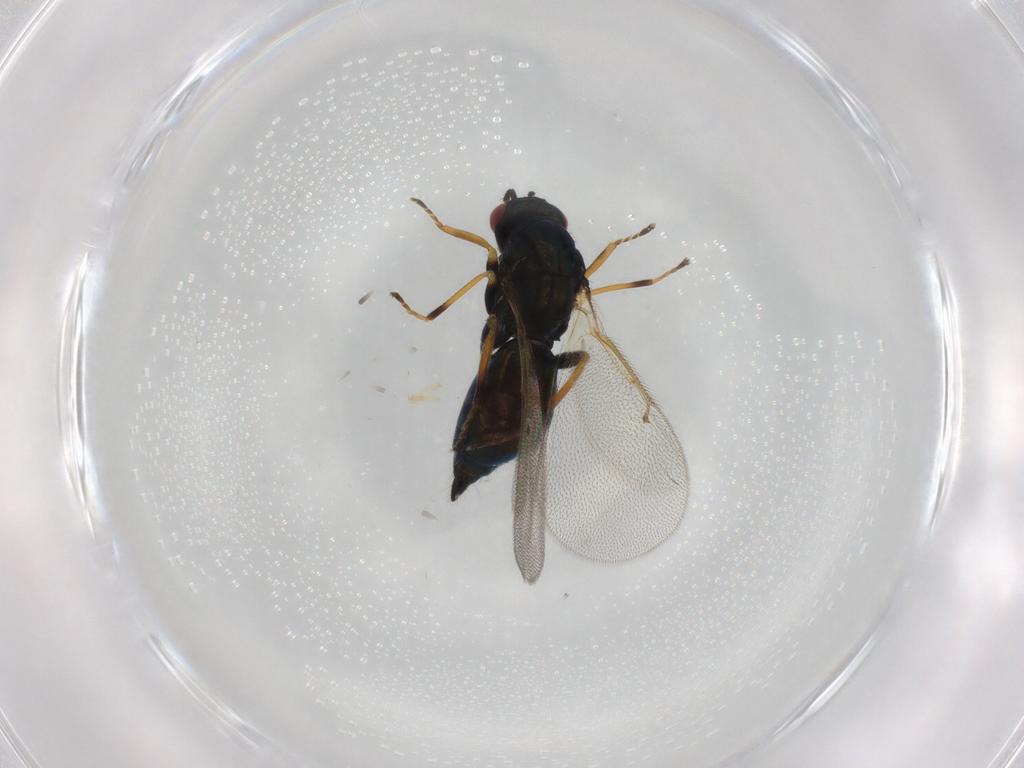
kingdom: Animalia
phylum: Arthropoda
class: Insecta
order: Hymenoptera
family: Eulophidae
